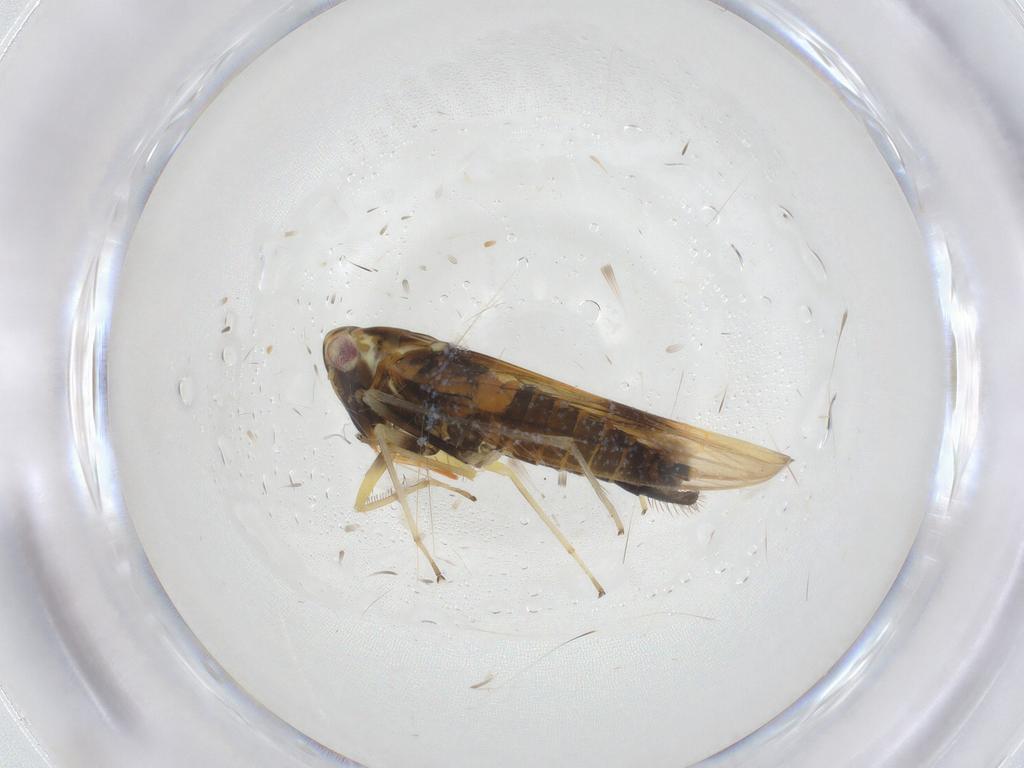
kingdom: Animalia
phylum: Arthropoda
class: Insecta
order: Hemiptera
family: Cicadellidae
